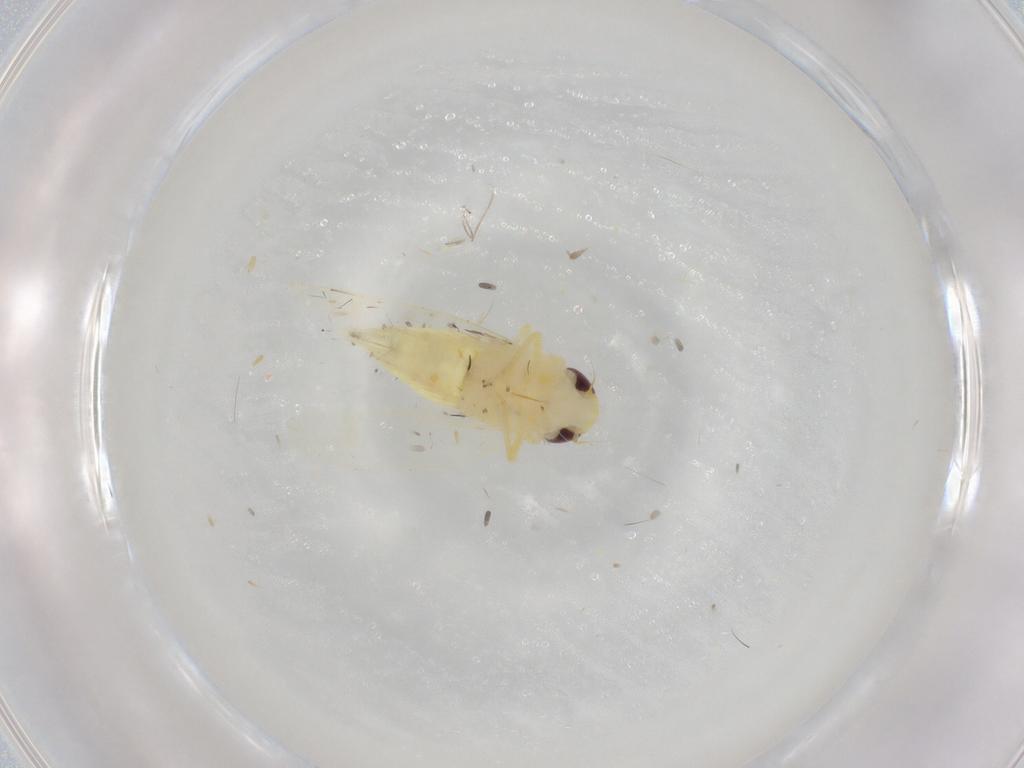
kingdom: Animalia
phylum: Arthropoda
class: Insecta
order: Hemiptera
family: Cicadellidae
